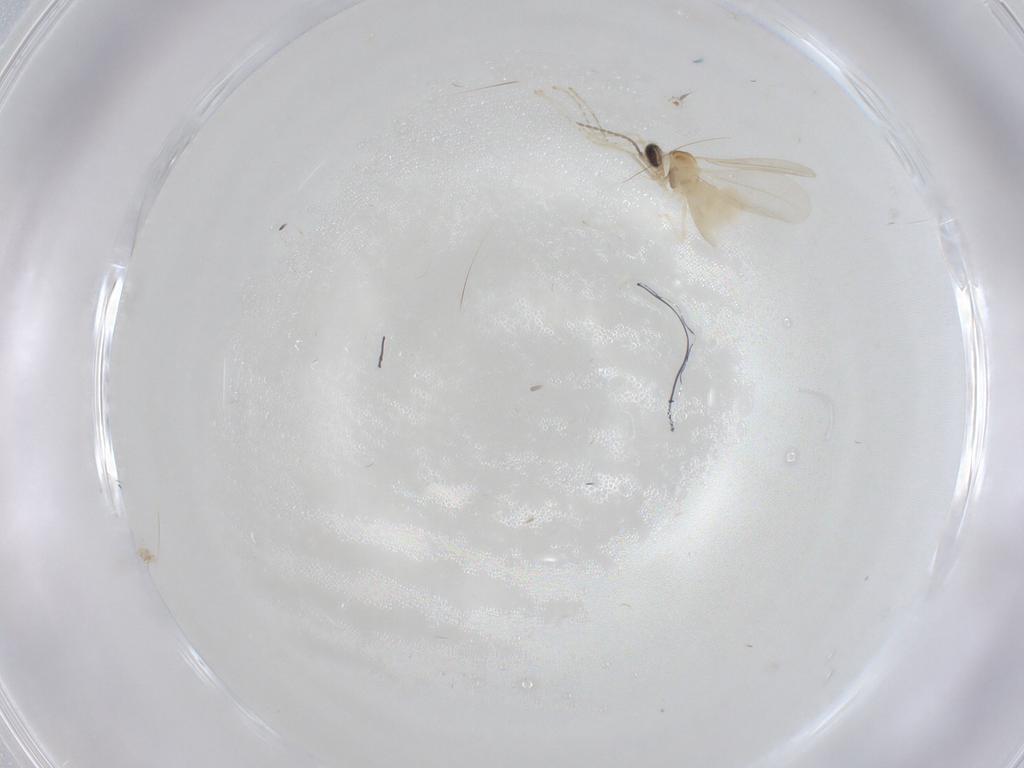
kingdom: Animalia
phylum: Arthropoda
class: Insecta
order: Diptera
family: Cecidomyiidae
